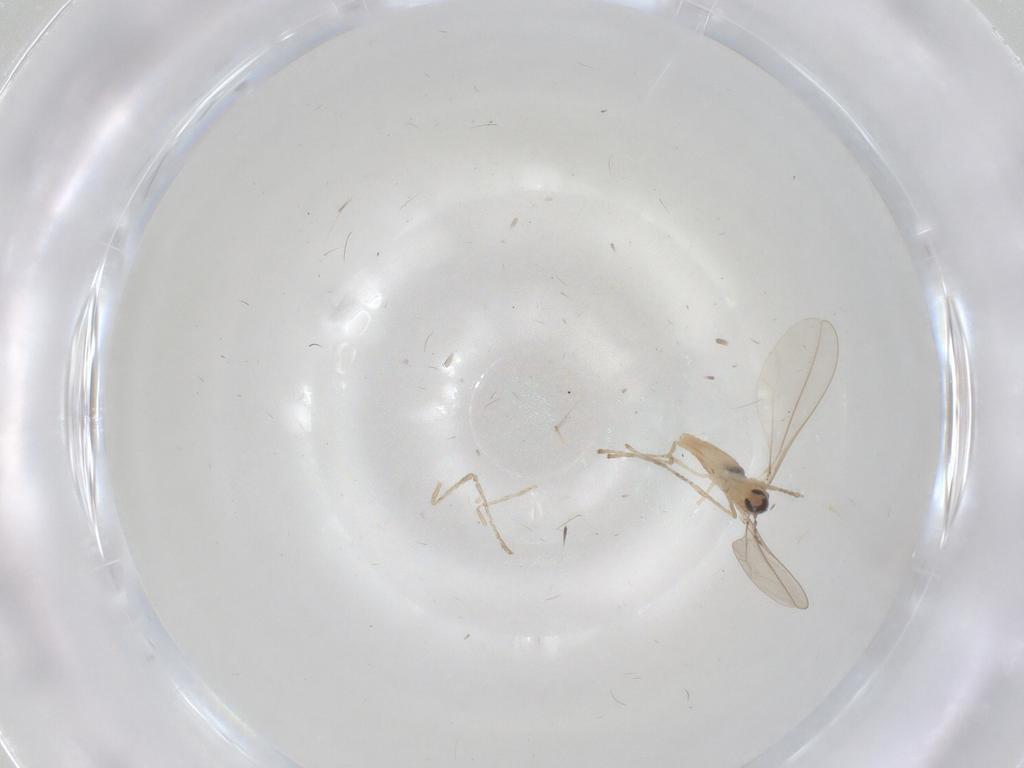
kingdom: Animalia
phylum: Arthropoda
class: Insecta
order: Diptera
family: Cecidomyiidae
